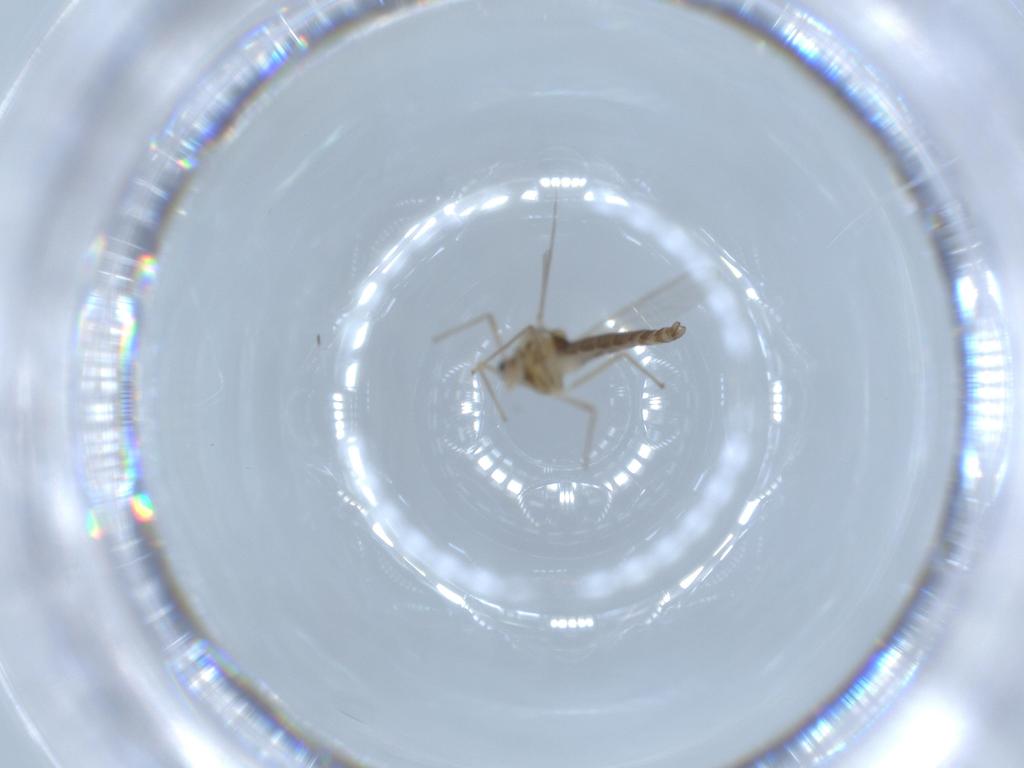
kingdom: Animalia
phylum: Arthropoda
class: Insecta
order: Diptera
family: Chironomidae
